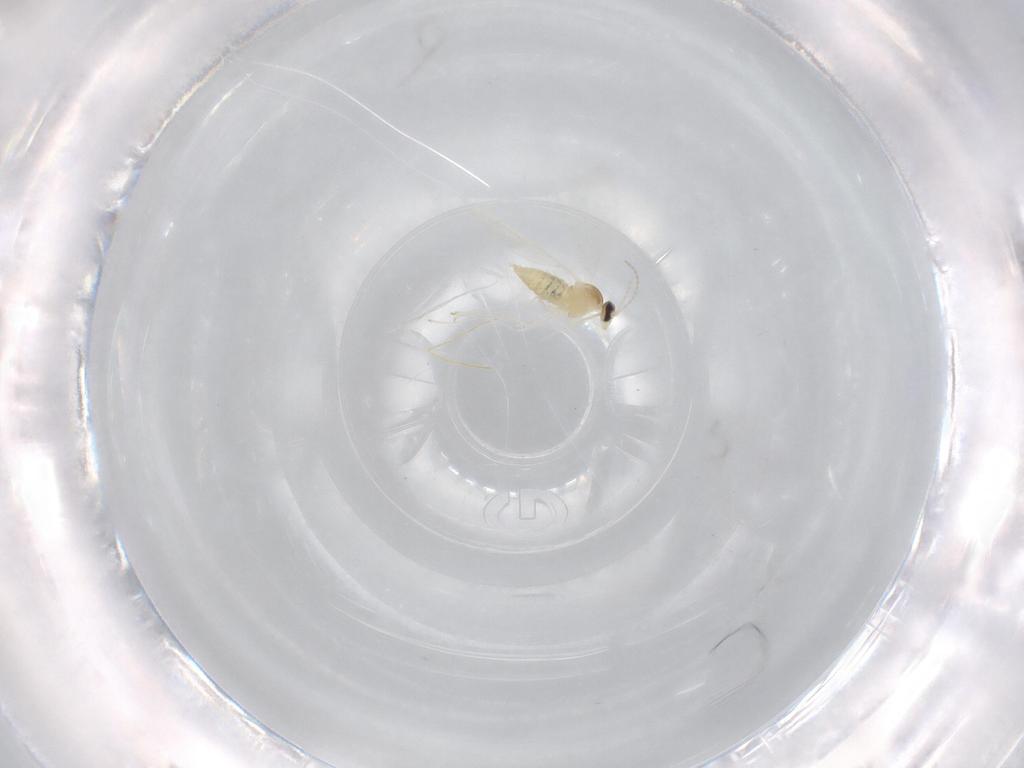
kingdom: Animalia
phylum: Arthropoda
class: Insecta
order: Diptera
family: Cecidomyiidae
